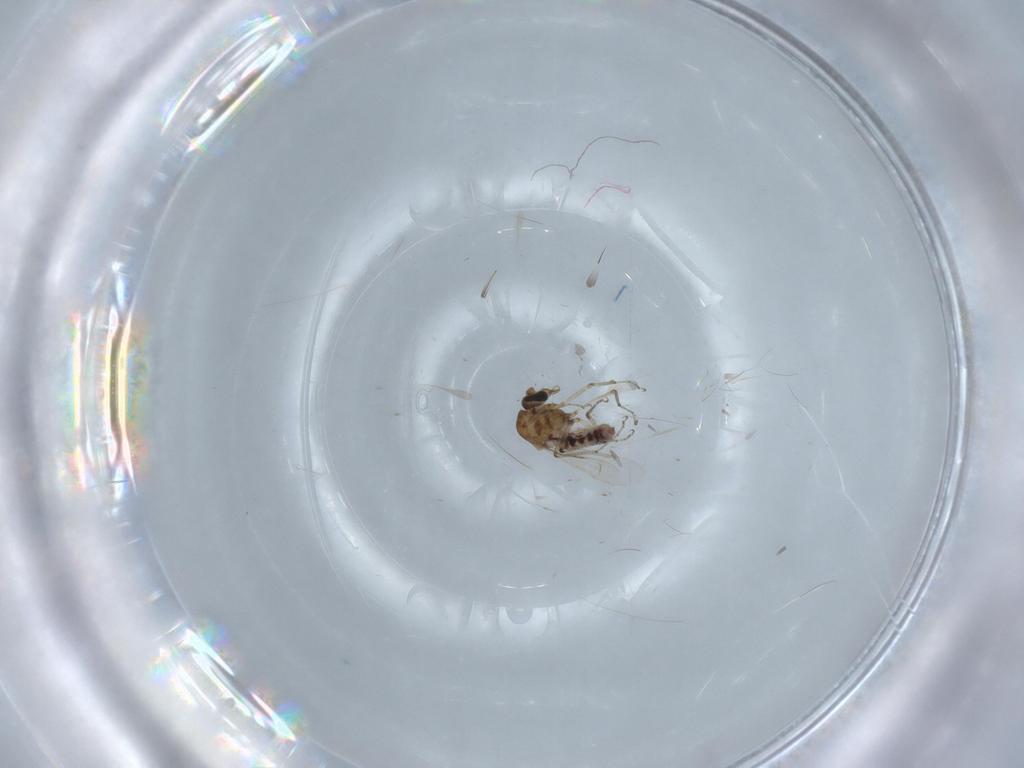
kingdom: Animalia
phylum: Arthropoda
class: Insecta
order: Diptera
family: Ceratopogonidae
